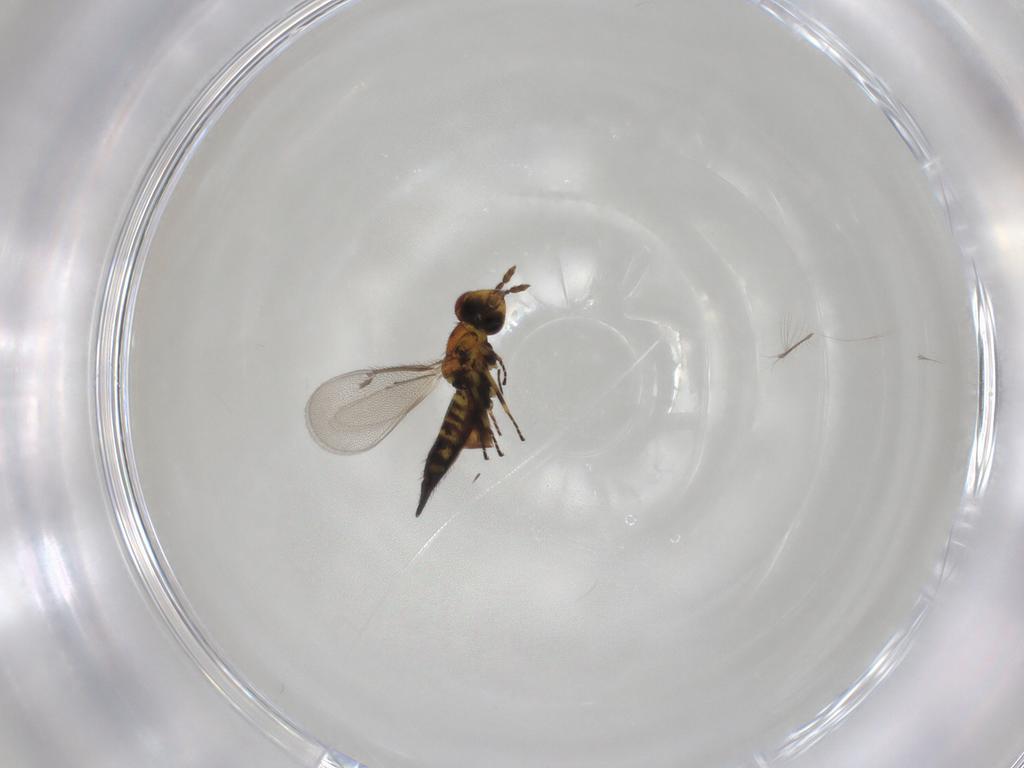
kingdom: Animalia
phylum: Arthropoda
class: Insecta
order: Hymenoptera
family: Eulophidae
